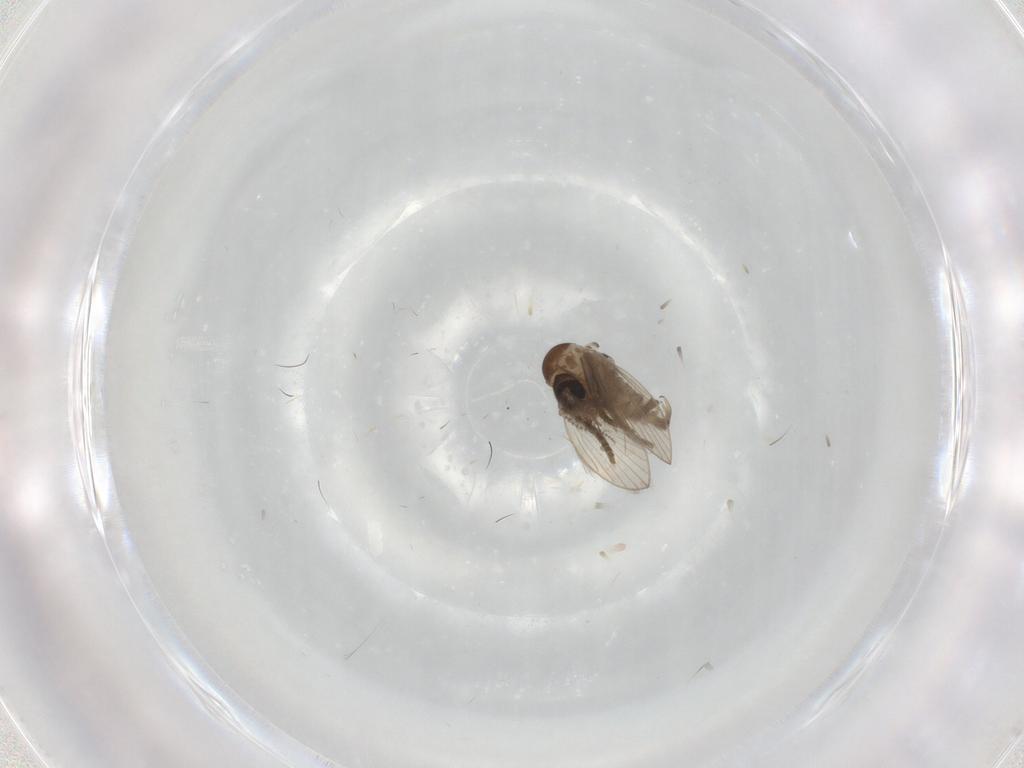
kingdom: Animalia
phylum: Arthropoda
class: Insecta
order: Diptera
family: Psychodidae
